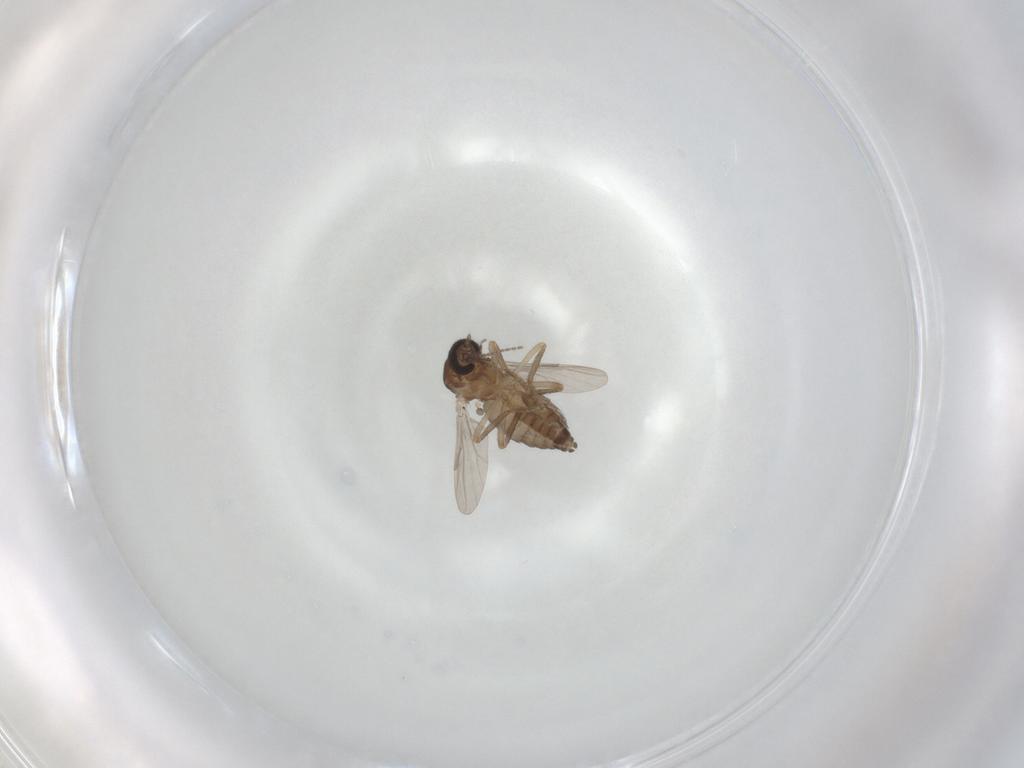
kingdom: Animalia
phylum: Arthropoda
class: Insecta
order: Diptera
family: Ceratopogonidae
